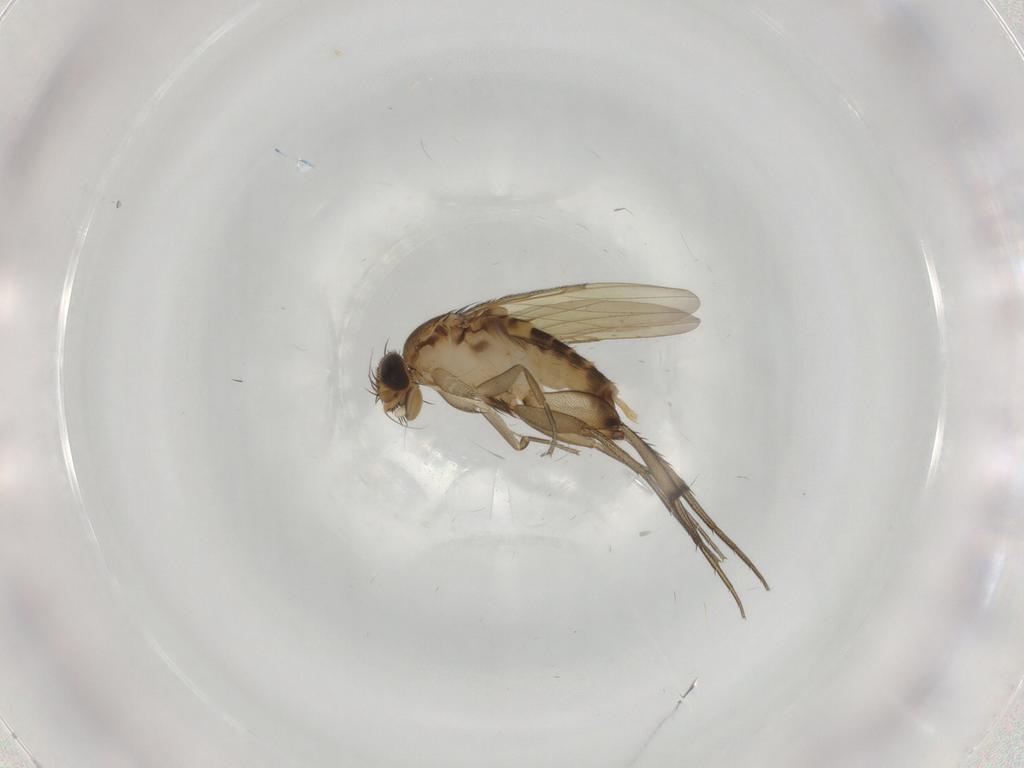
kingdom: Animalia
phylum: Arthropoda
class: Insecta
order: Diptera
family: Phoridae
